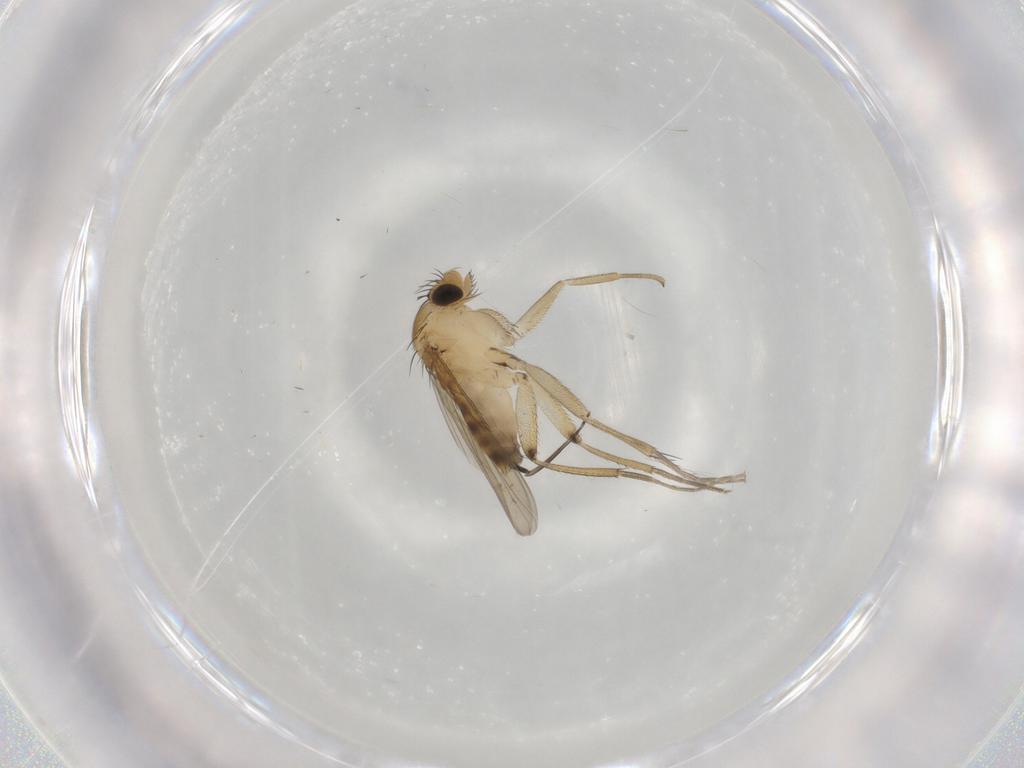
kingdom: Animalia
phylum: Arthropoda
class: Insecta
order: Diptera
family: Phoridae
